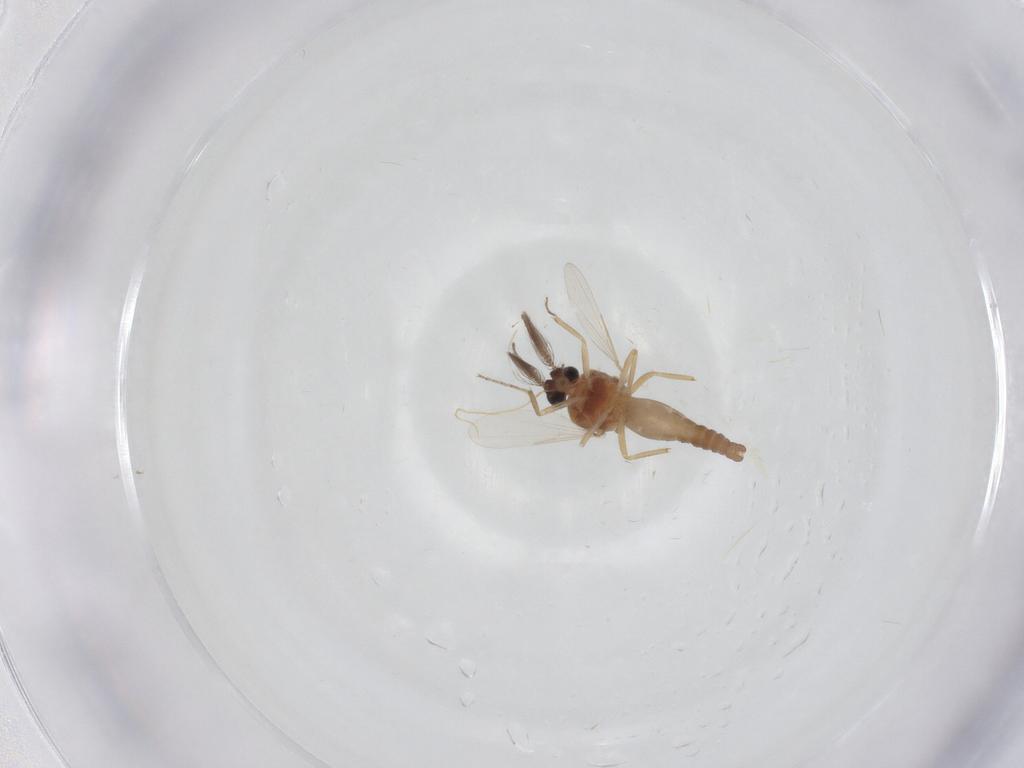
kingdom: Animalia
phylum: Arthropoda
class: Insecta
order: Diptera
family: Ceratopogonidae
